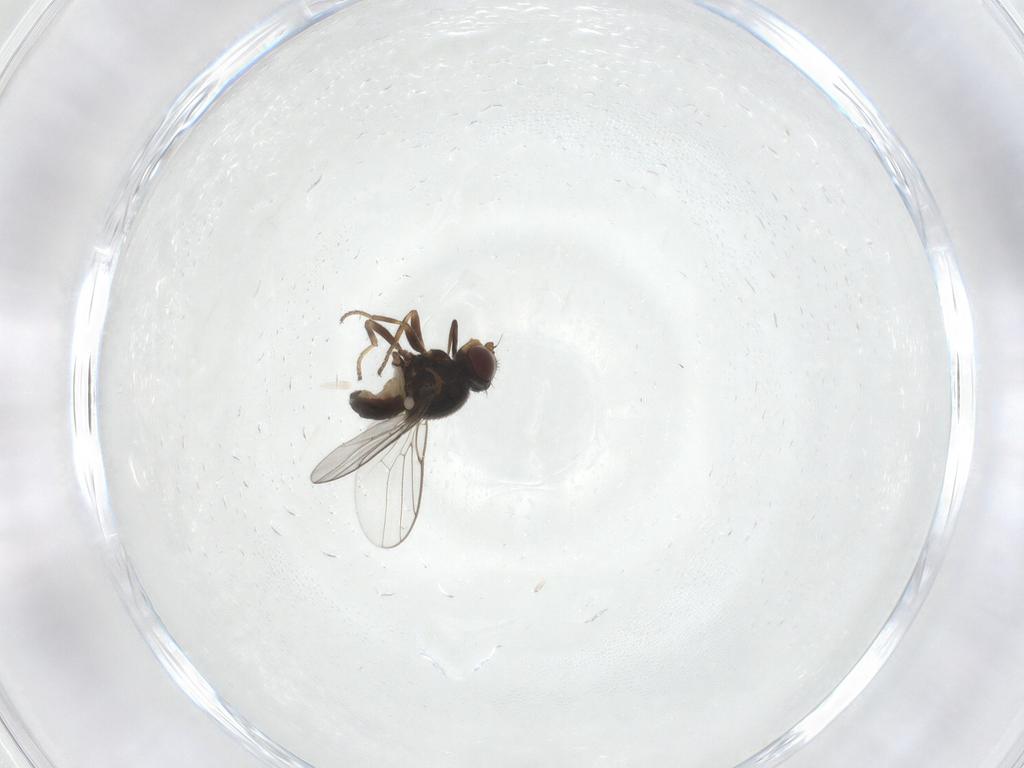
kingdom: Animalia
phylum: Arthropoda
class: Insecta
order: Diptera
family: Chloropidae
